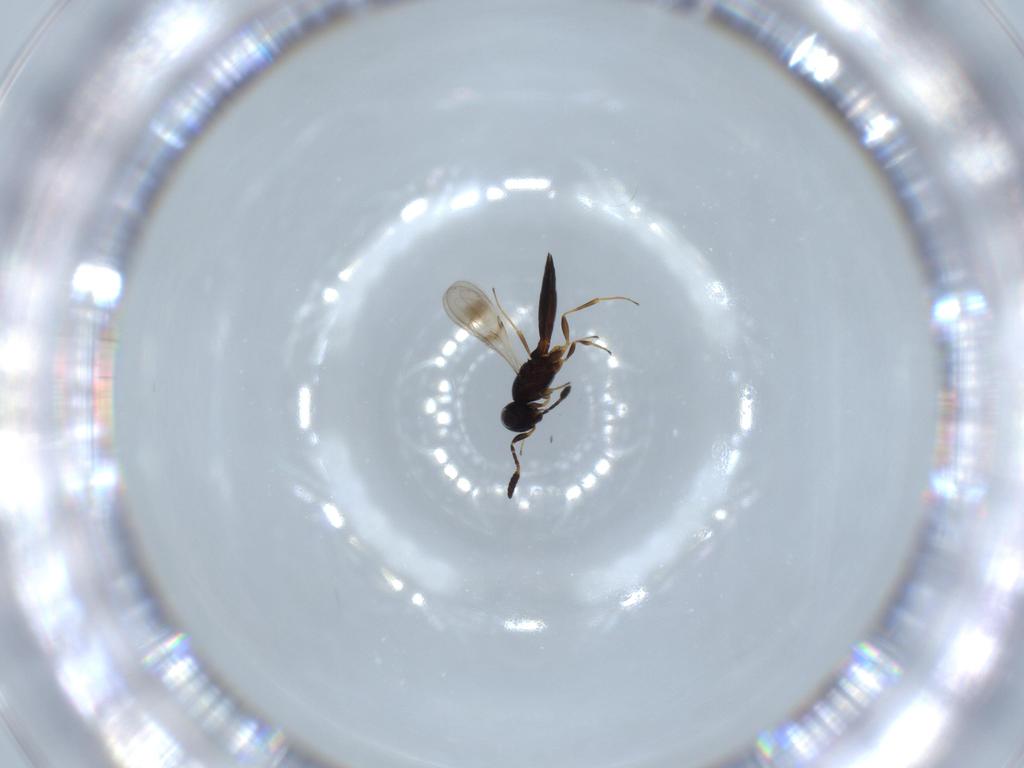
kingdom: Animalia
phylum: Arthropoda
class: Insecta
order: Hymenoptera
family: Scelionidae
